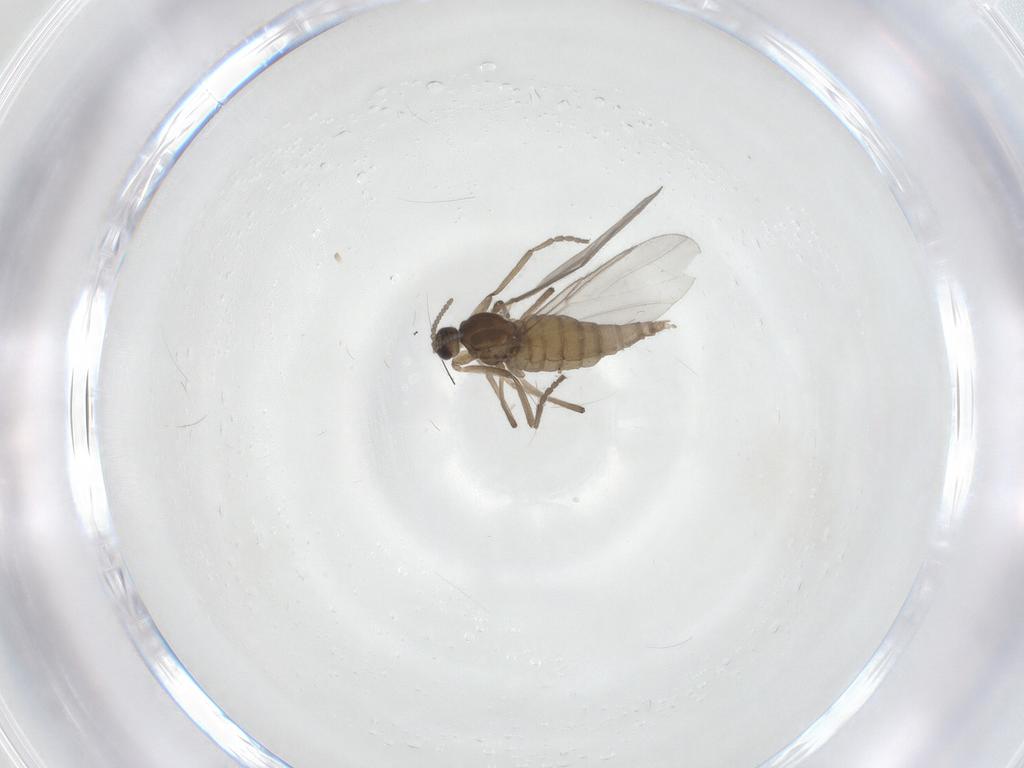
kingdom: Animalia
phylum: Arthropoda
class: Insecta
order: Diptera
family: Cecidomyiidae
